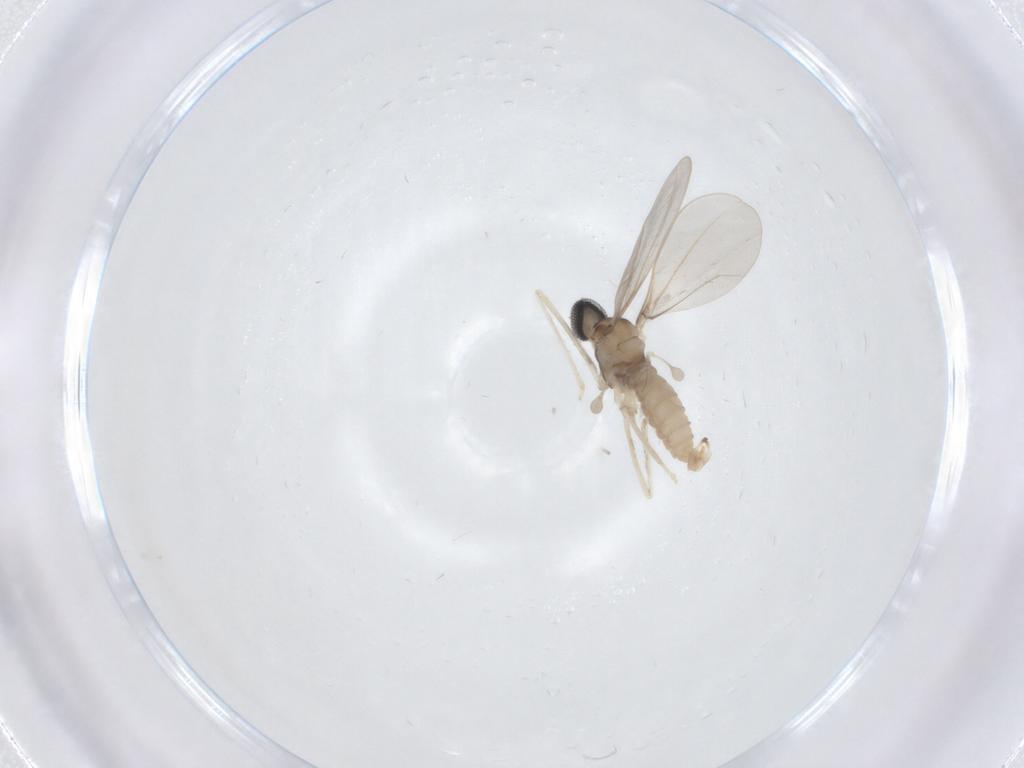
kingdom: Animalia
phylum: Arthropoda
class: Insecta
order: Diptera
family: Cecidomyiidae
